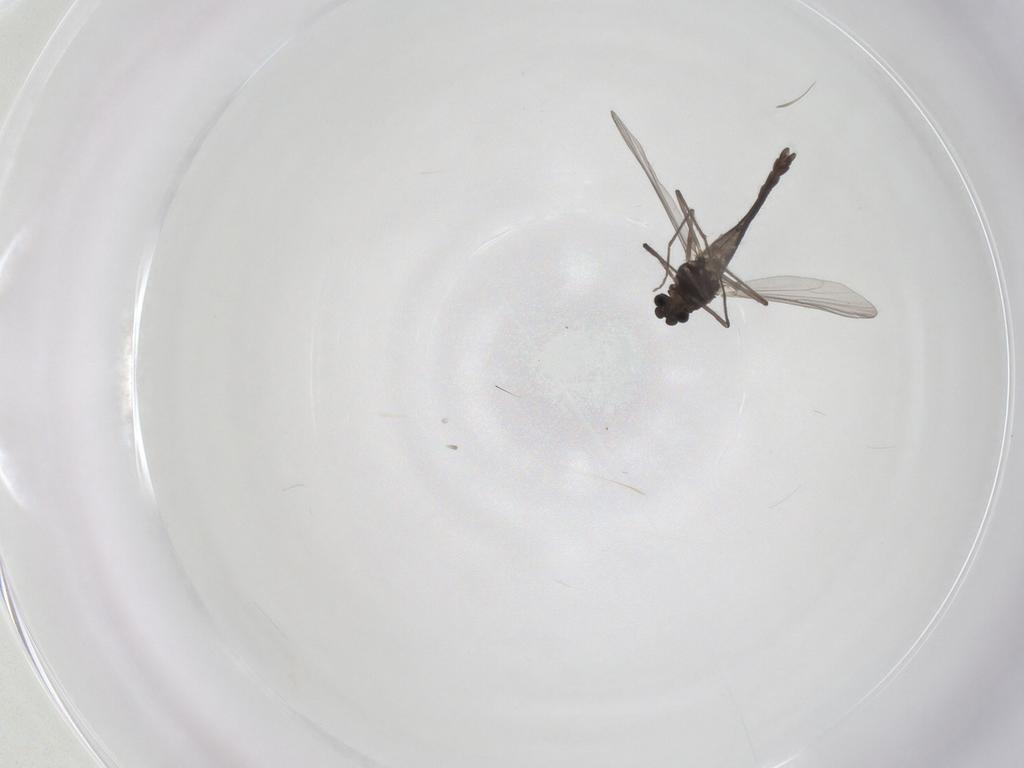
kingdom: Animalia
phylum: Arthropoda
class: Insecta
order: Diptera
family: Chironomidae
